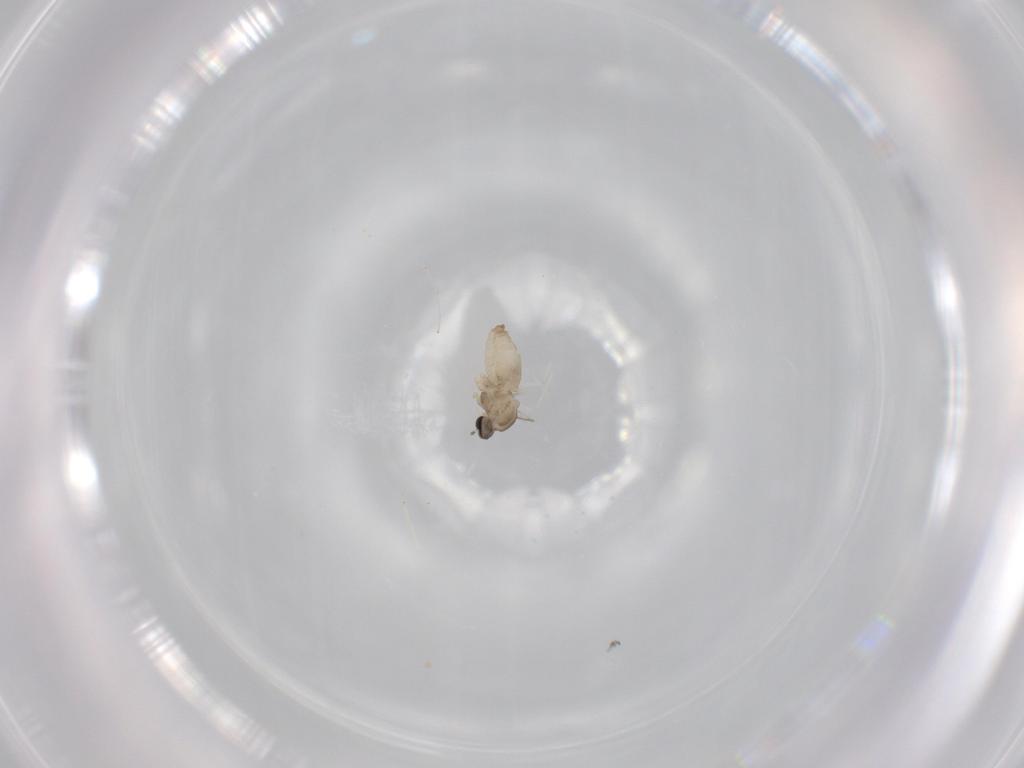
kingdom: Animalia
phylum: Arthropoda
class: Insecta
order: Diptera
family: Cecidomyiidae
